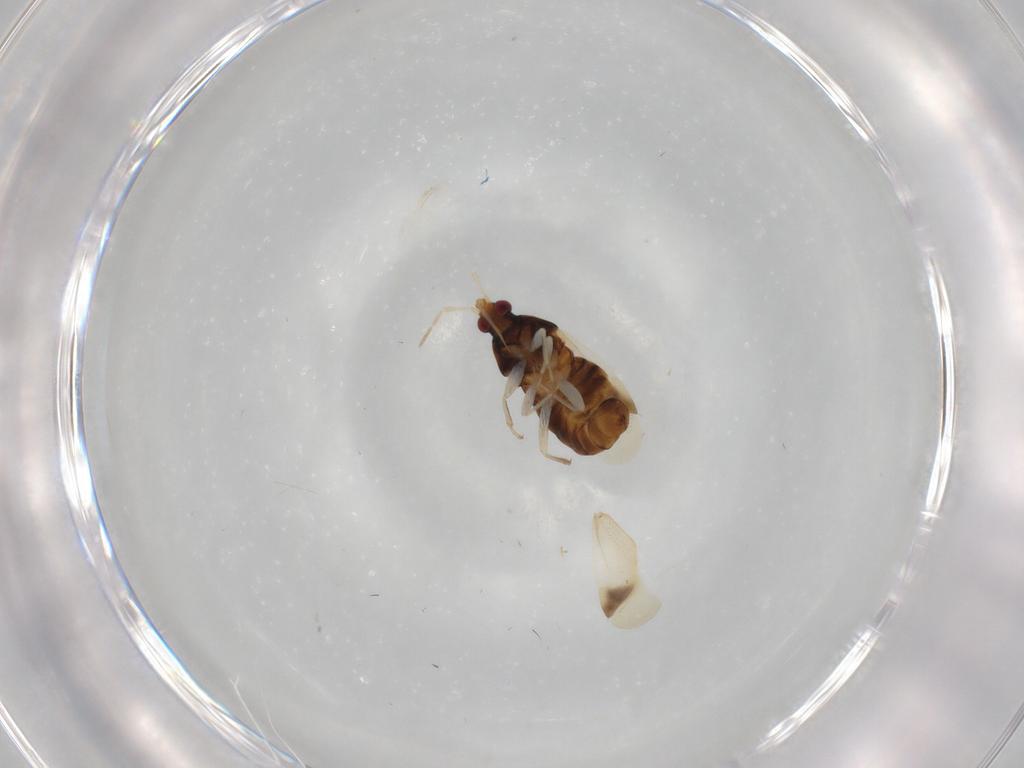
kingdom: Animalia
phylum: Arthropoda
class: Insecta
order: Hemiptera
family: Anthocoridae
